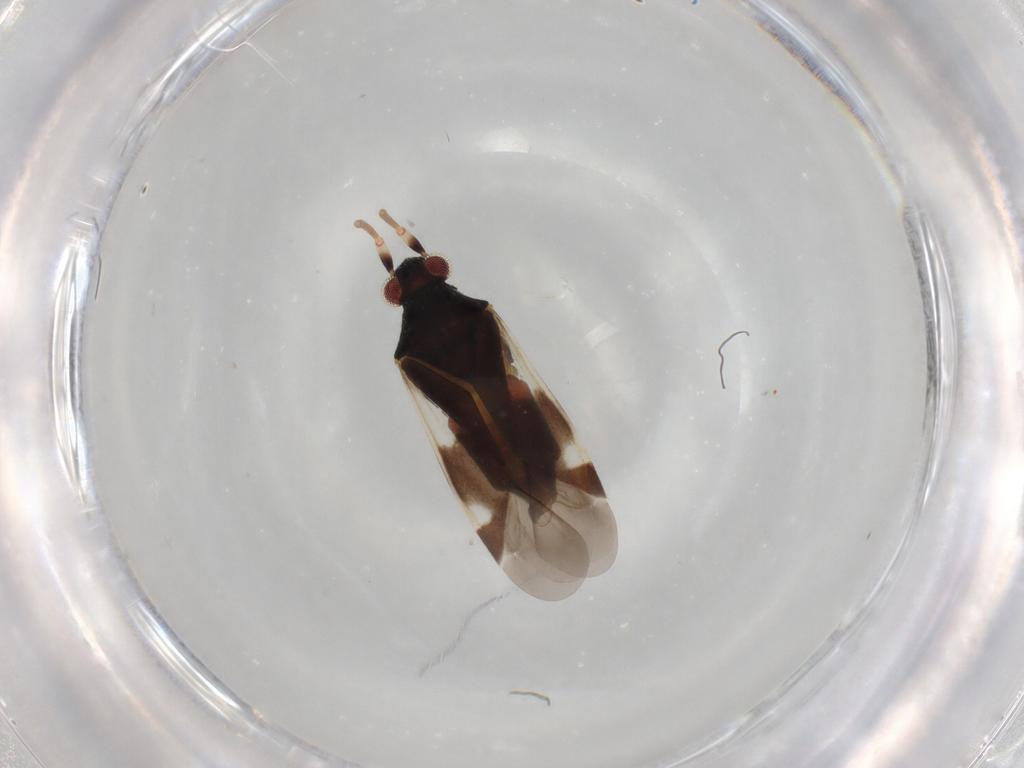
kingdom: Animalia
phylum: Arthropoda
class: Insecta
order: Hemiptera
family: Miridae
